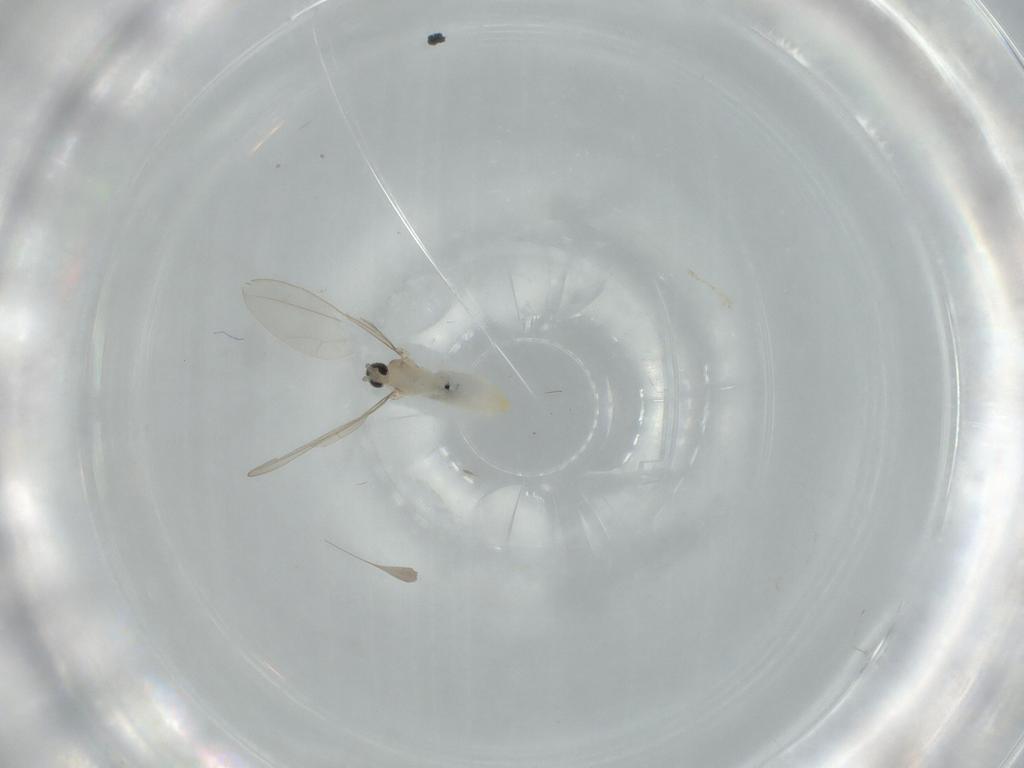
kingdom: Animalia
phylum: Arthropoda
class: Insecta
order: Diptera
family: Cecidomyiidae
